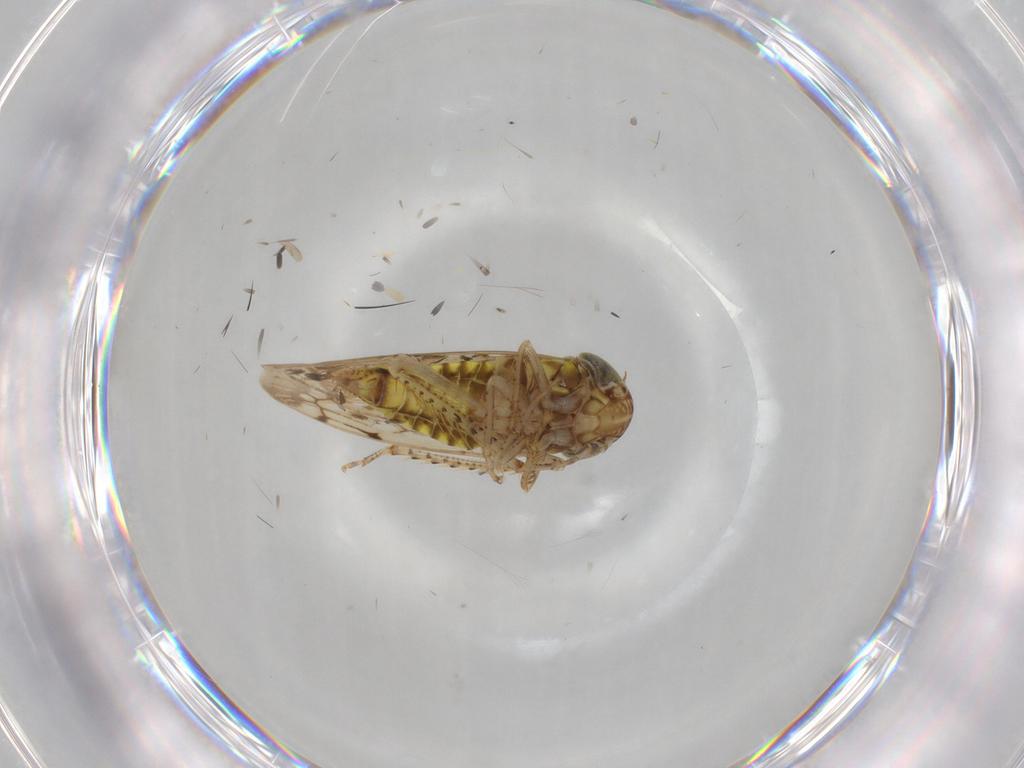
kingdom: Animalia
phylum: Arthropoda
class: Insecta
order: Hemiptera
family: Cicadellidae
